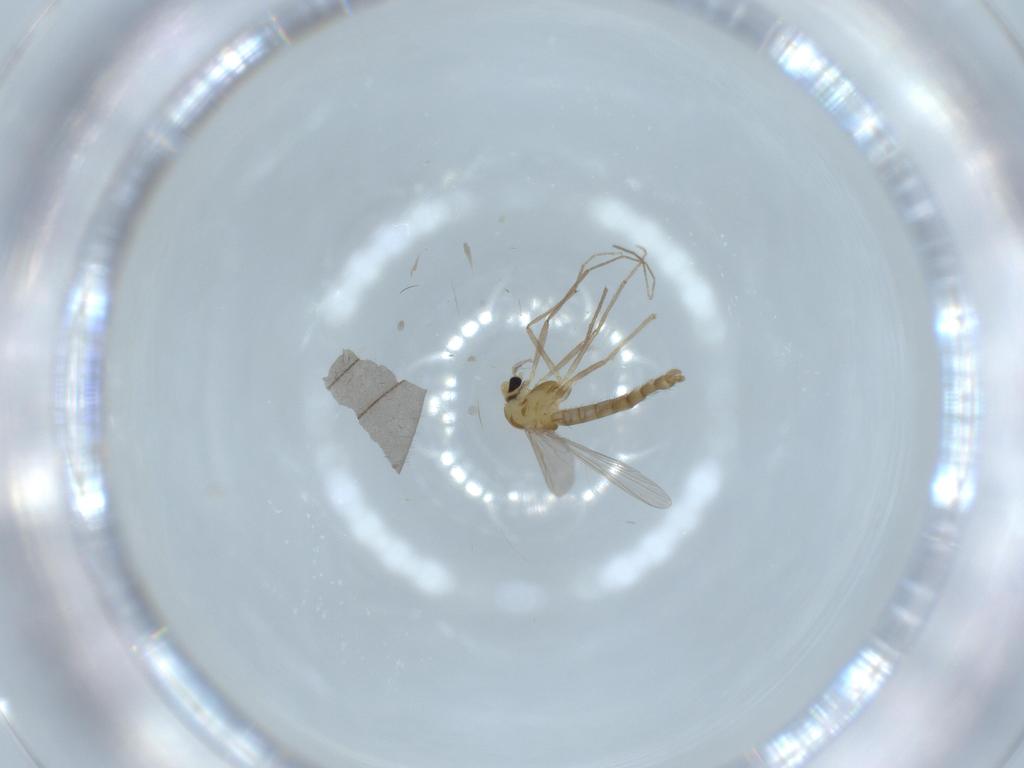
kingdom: Animalia
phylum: Arthropoda
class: Insecta
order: Diptera
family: Chironomidae
